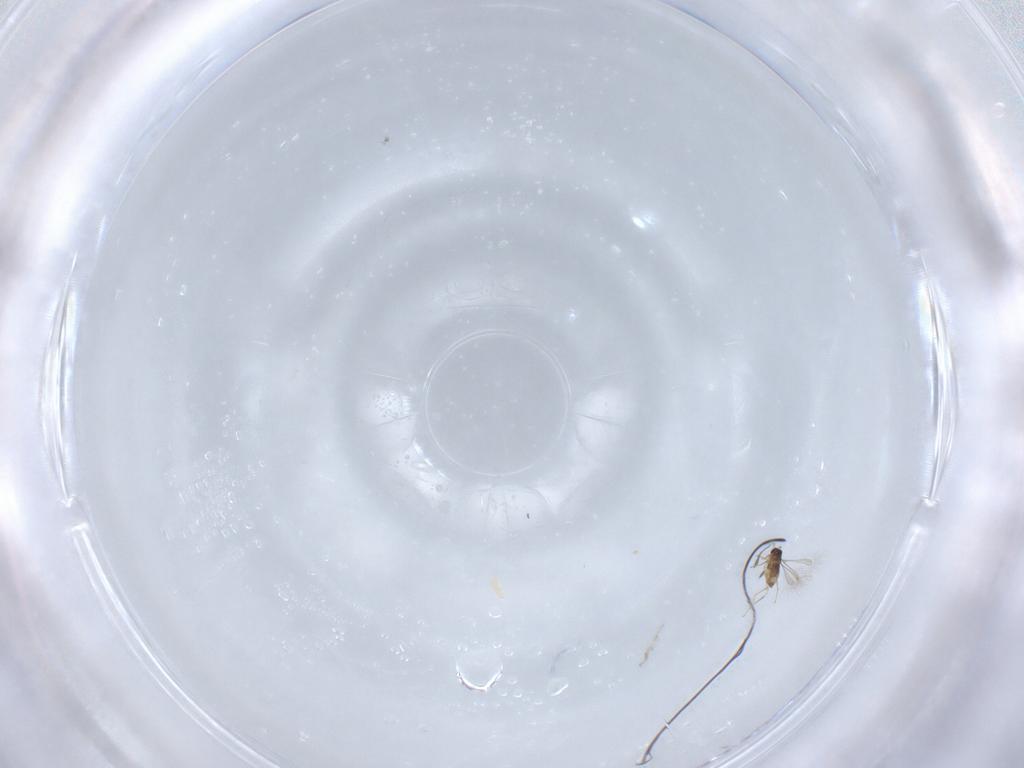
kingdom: Animalia
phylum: Arthropoda
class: Insecta
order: Hymenoptera
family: Mymaridae
